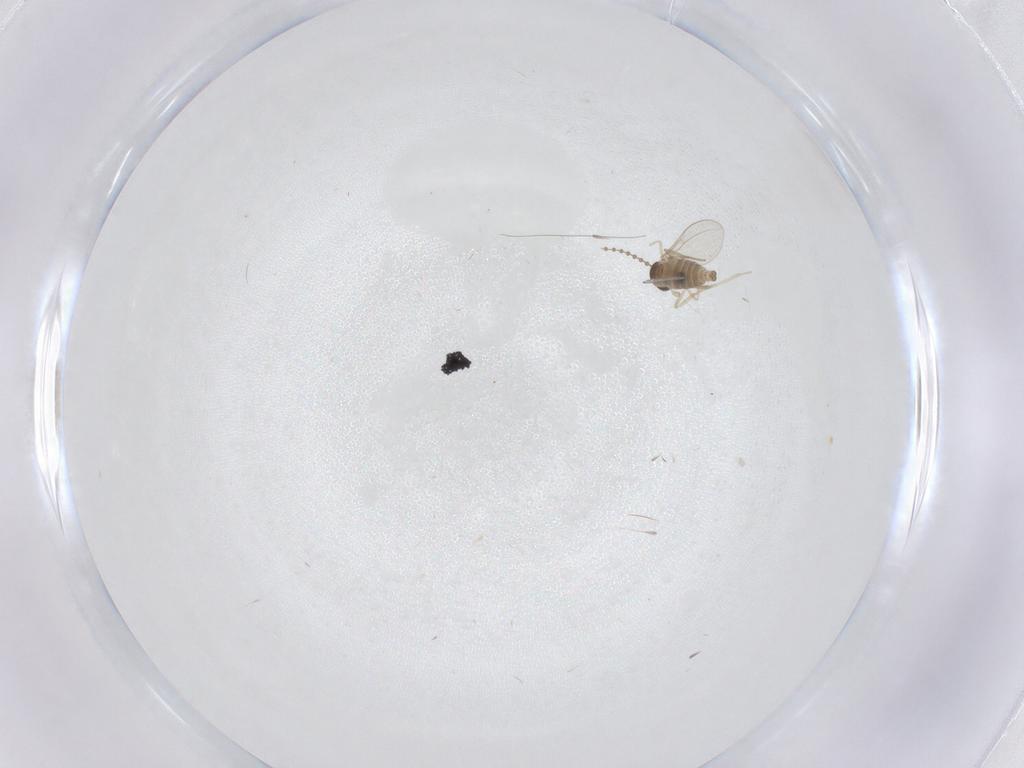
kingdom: Animalia
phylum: Arthropoda
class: Insecta
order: Diptera
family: Cecidomyiidae
